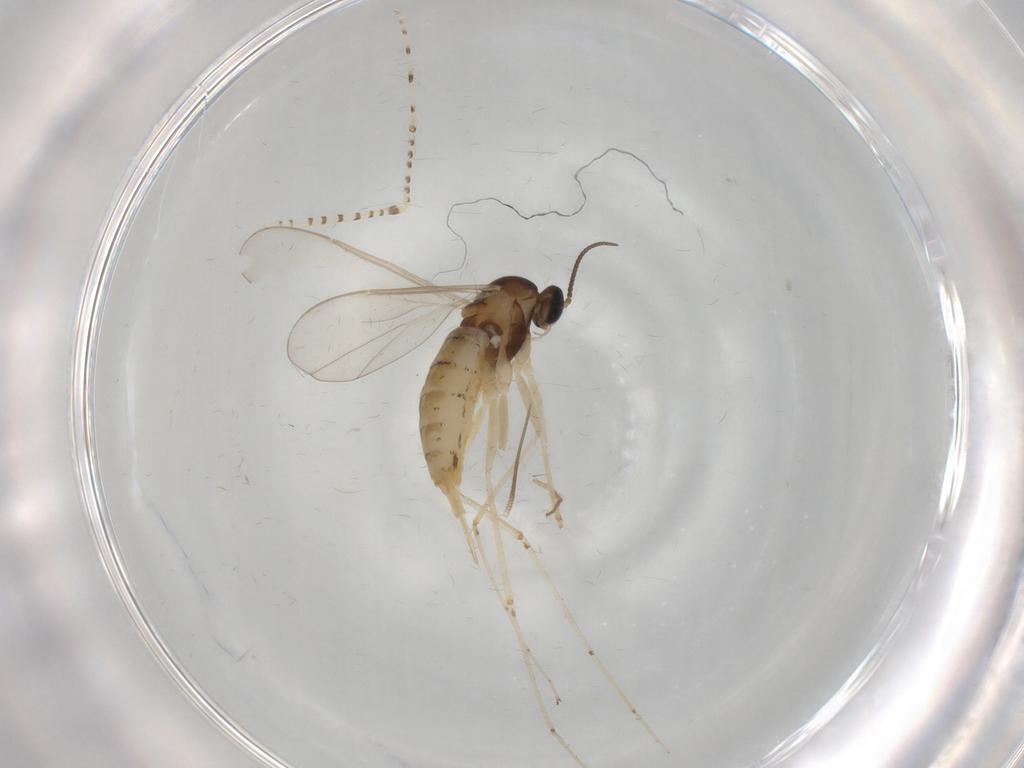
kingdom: Animalia
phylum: Arthropoda
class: Insecta
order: Diptera
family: Cecidomyiidae
